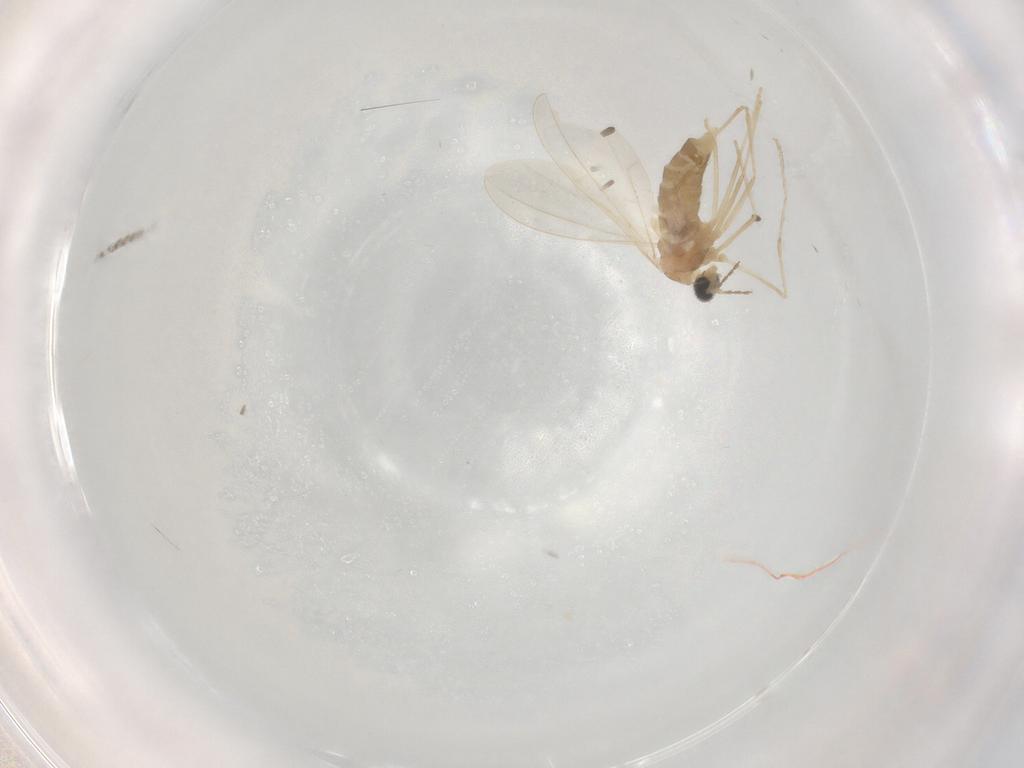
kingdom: Animalia
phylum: Arthropoda
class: Insecta
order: Diptera
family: Cecidomyiidae
